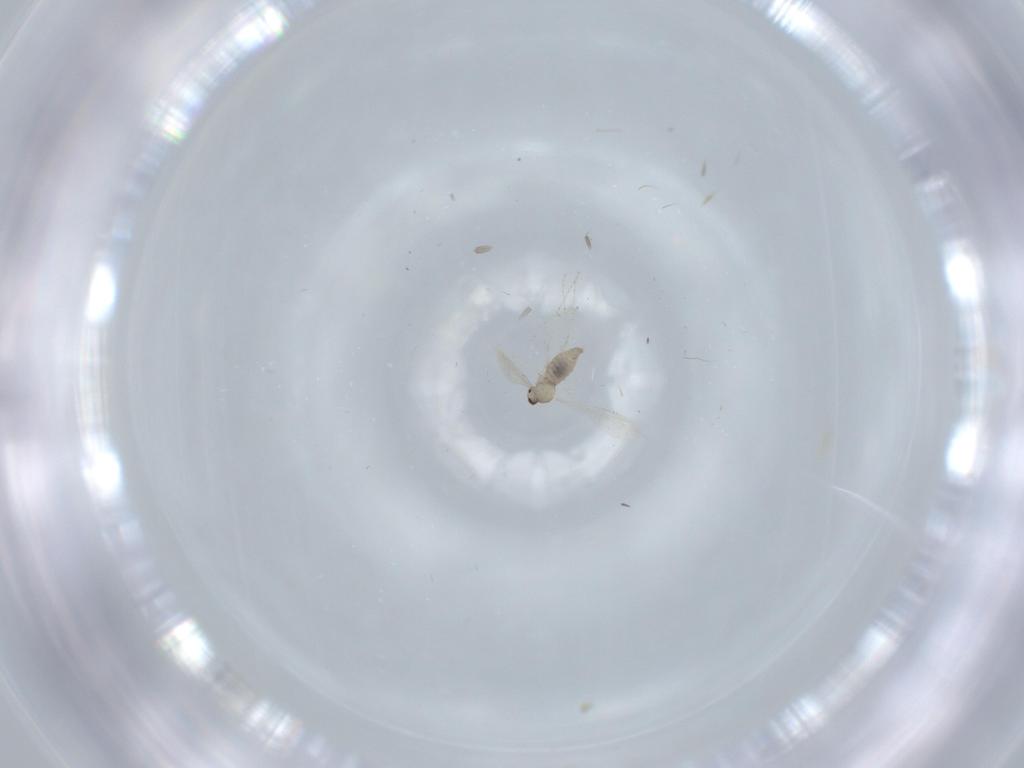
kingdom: Animalia
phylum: Arthropoda
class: Insecta
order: Diptera
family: Cecidomyiidae
